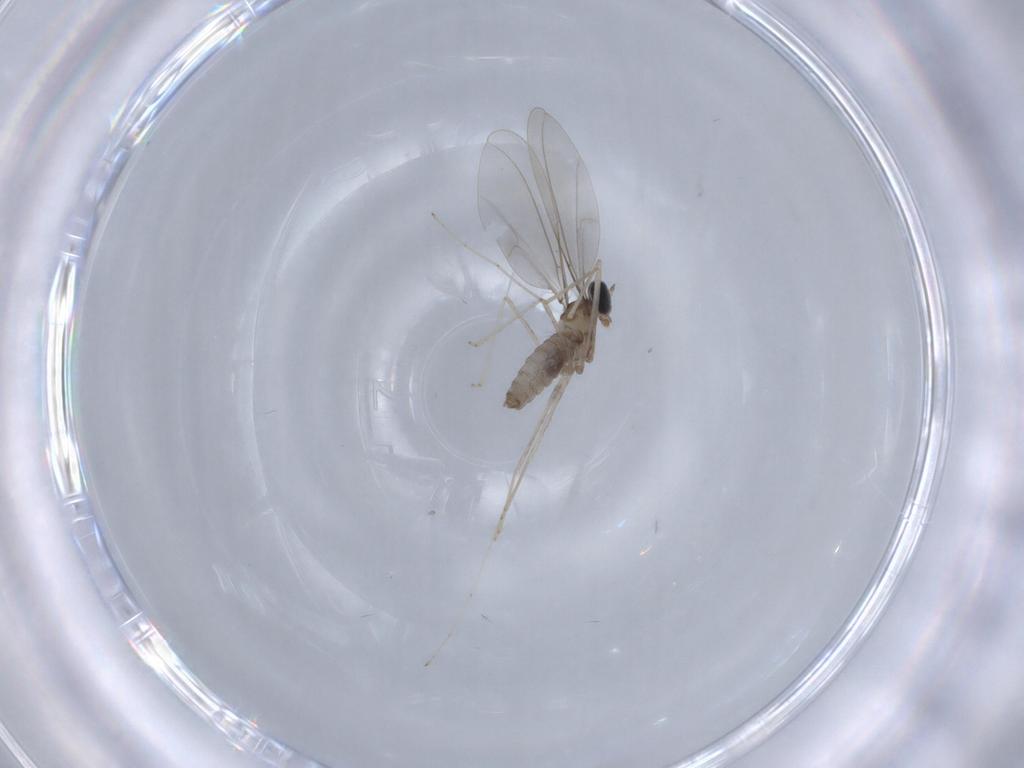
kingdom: Animalia
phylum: Arthropoda
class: Insecta
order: Diptera
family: Cecidomyiidae
